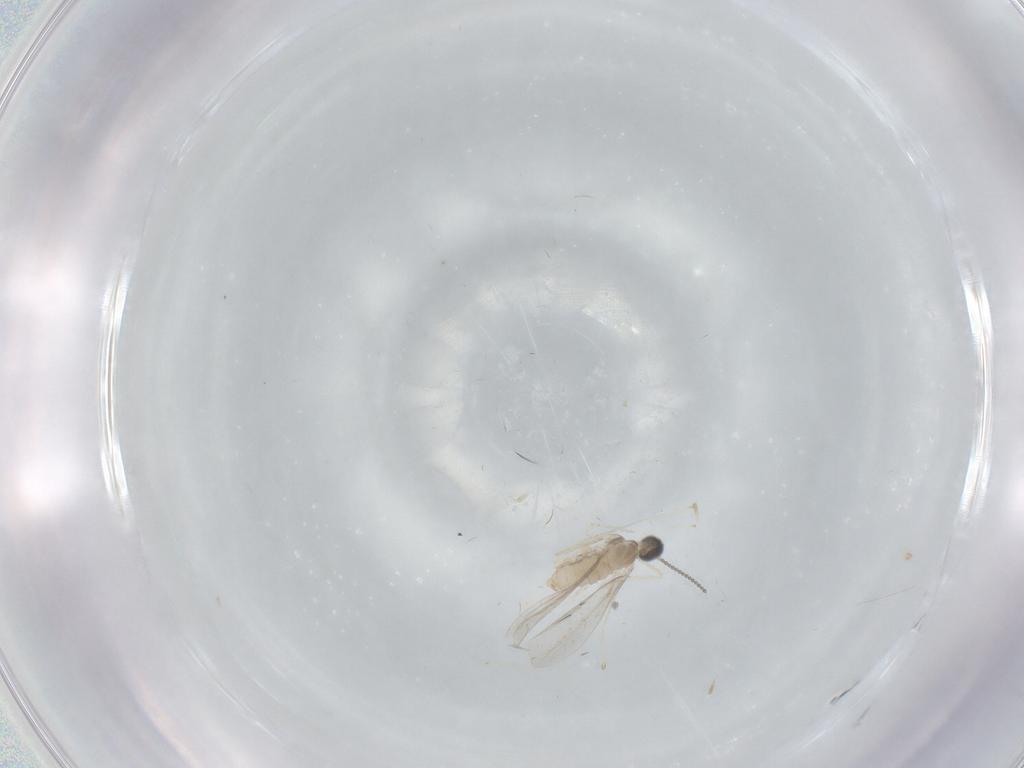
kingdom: Animalia
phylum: Arthropoda
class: Insecta
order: Diptera
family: Cecidomyiidae
